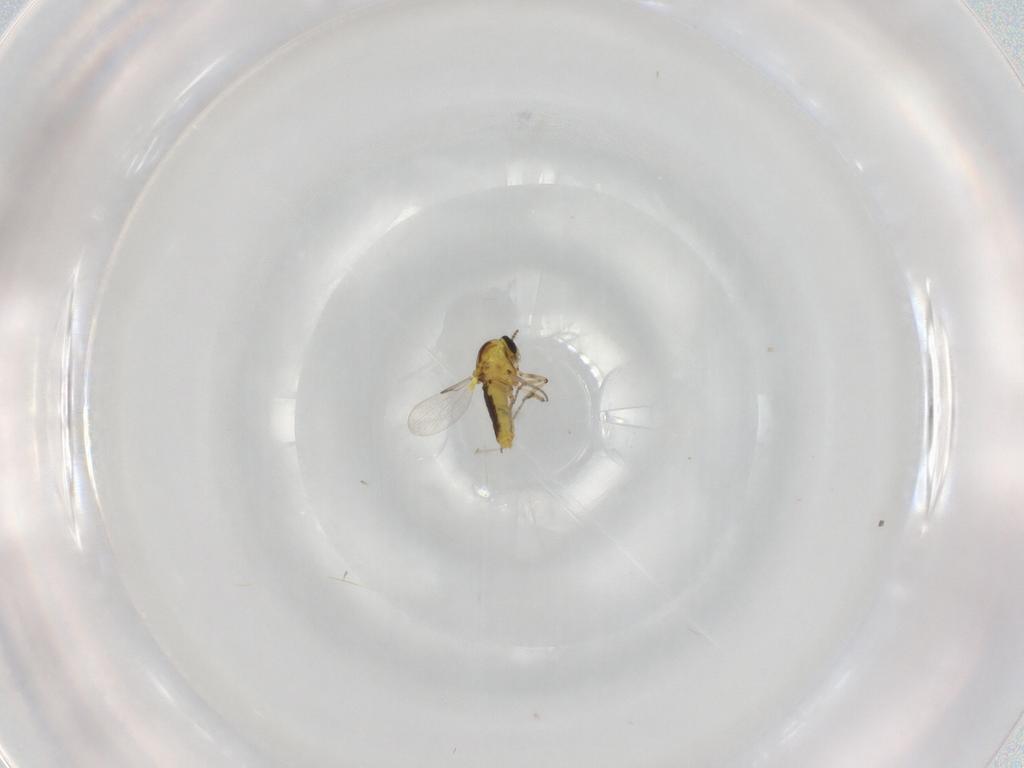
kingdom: Animalia
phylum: Arthropoda
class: Insecta
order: Diptera
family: Ceratopogonidae
